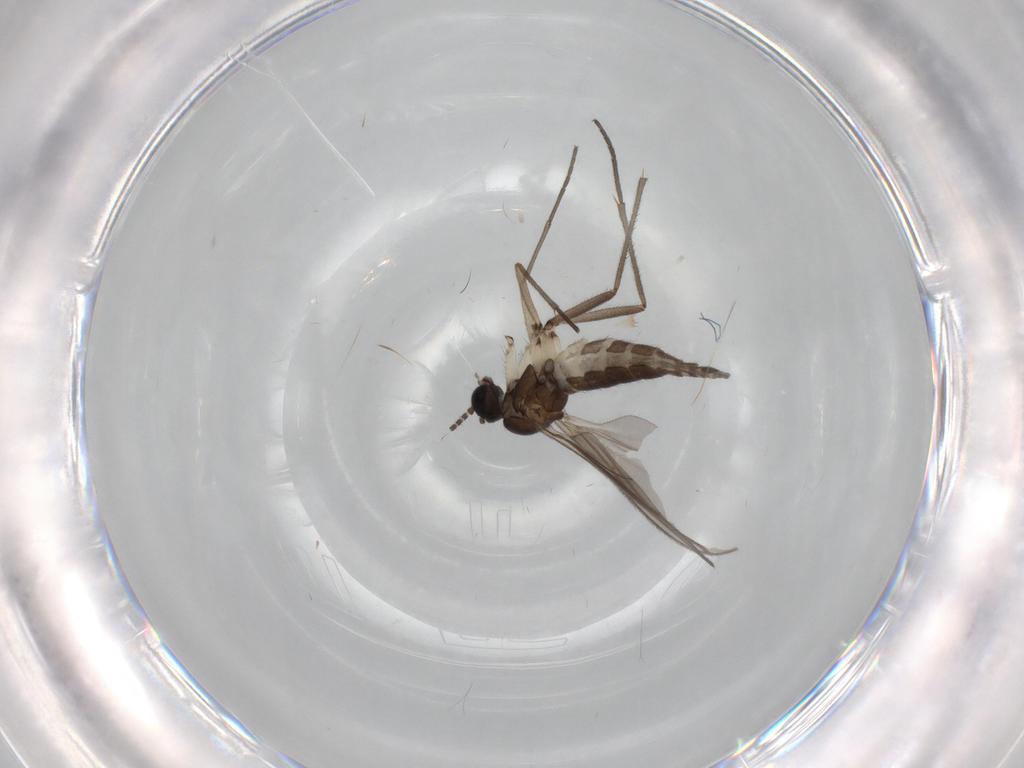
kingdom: Animalia
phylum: Arthropoda
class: Insecta
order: Diptera
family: Sciaridae
